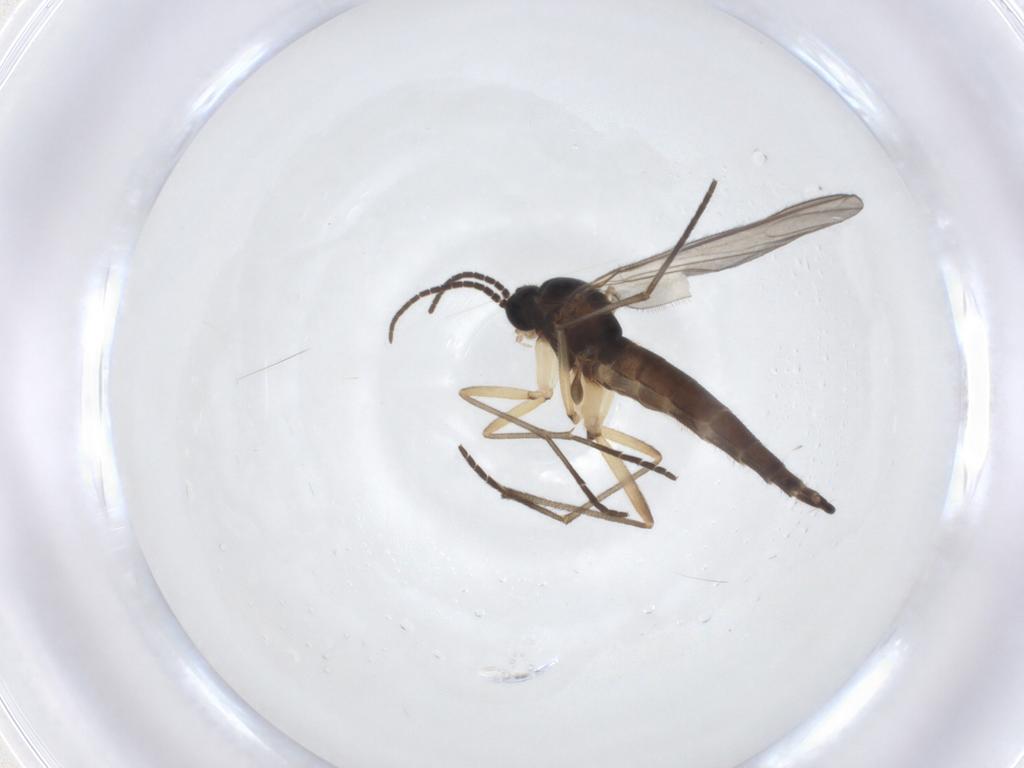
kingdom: Animalia
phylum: Arthropoda
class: Insecta
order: Diptera
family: Sciaridae
